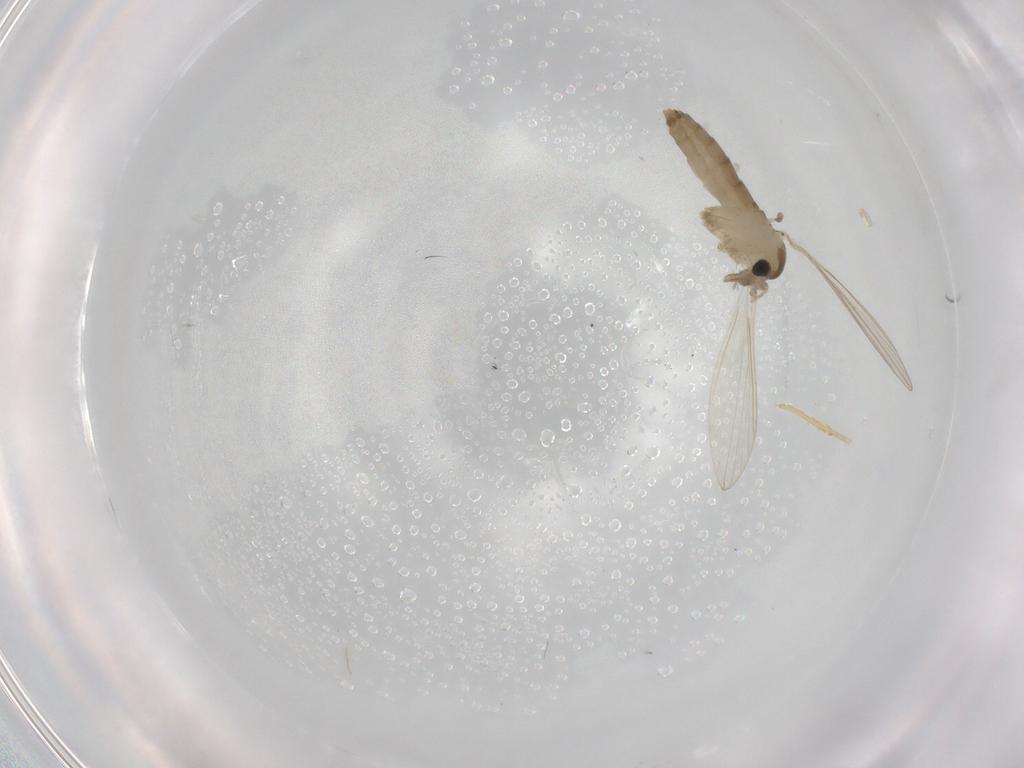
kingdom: Animalia
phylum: Arthropoda
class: Insecta
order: Diptera
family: Psychodidae
